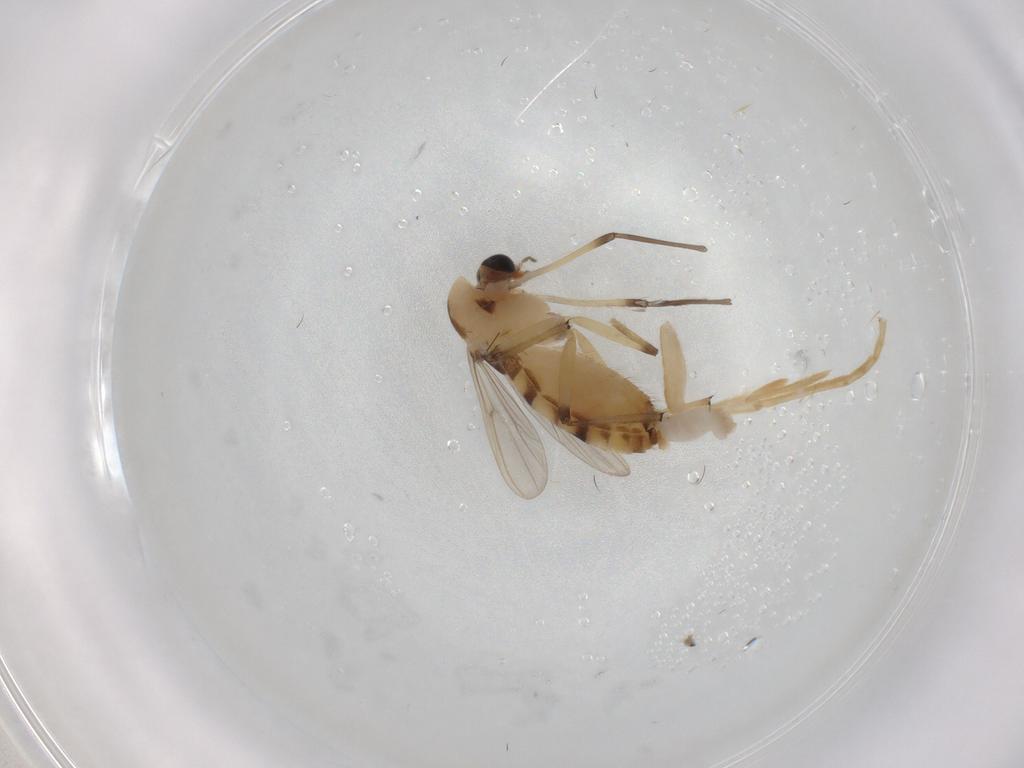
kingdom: Animalia
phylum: Arthropoda
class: Insecta
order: Diptera
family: Chironomidae
